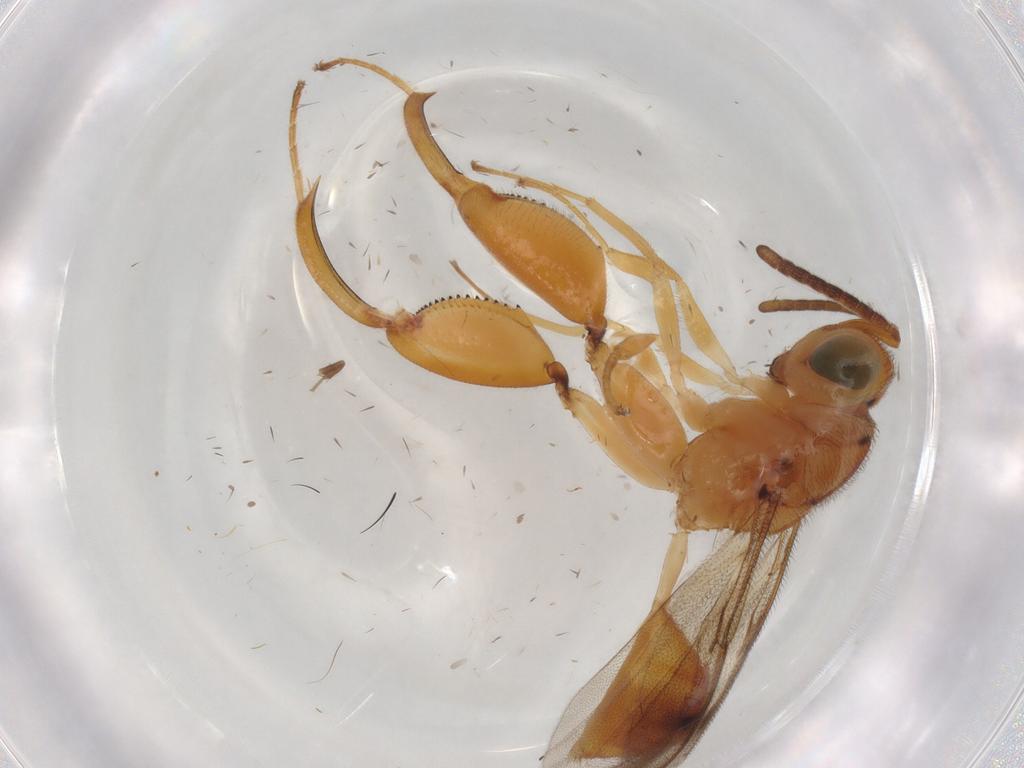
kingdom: Animalia
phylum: Arthropoda
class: Insecta
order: Hymenoptera
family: Chalcididae
